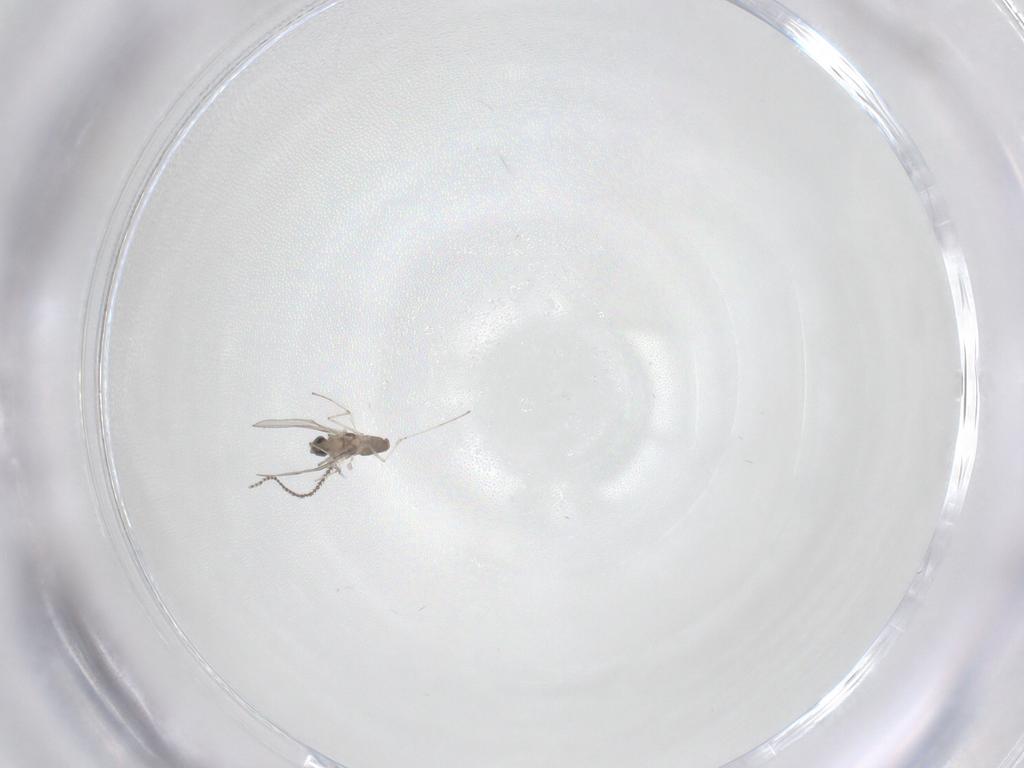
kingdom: Animalia
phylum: Arthropoda
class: Insecta
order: Diptera
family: Cecidomyiidae
